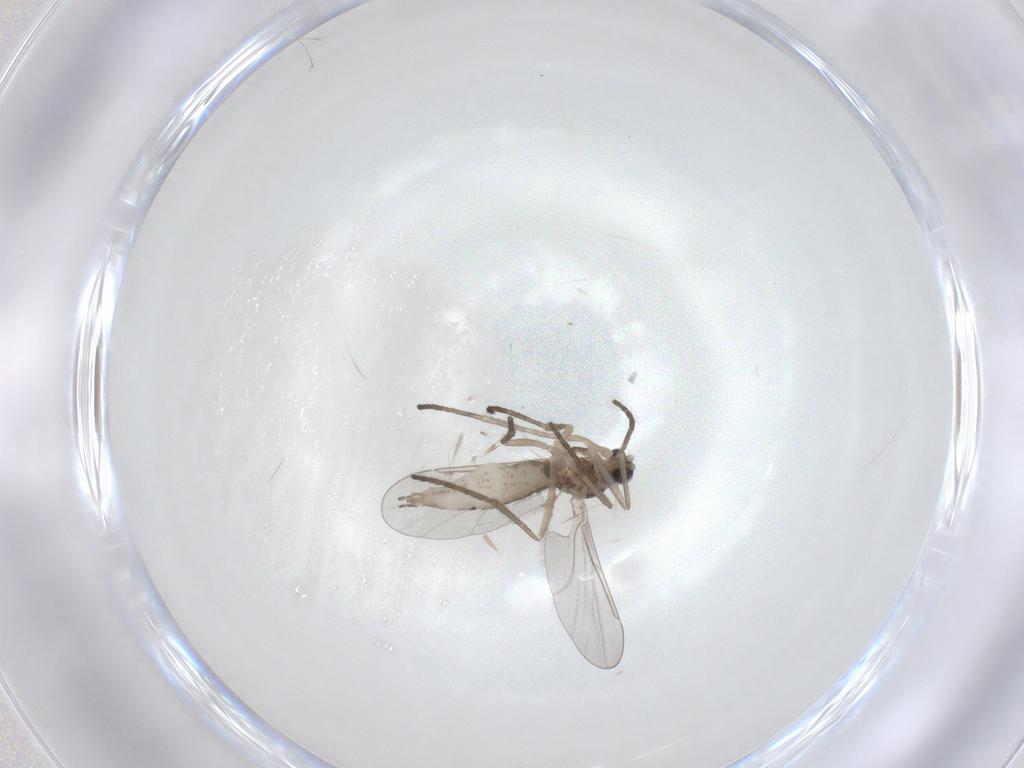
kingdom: Animalia
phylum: Arthropoda
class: Insecta
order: Diptera
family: Cecidomyiidae
